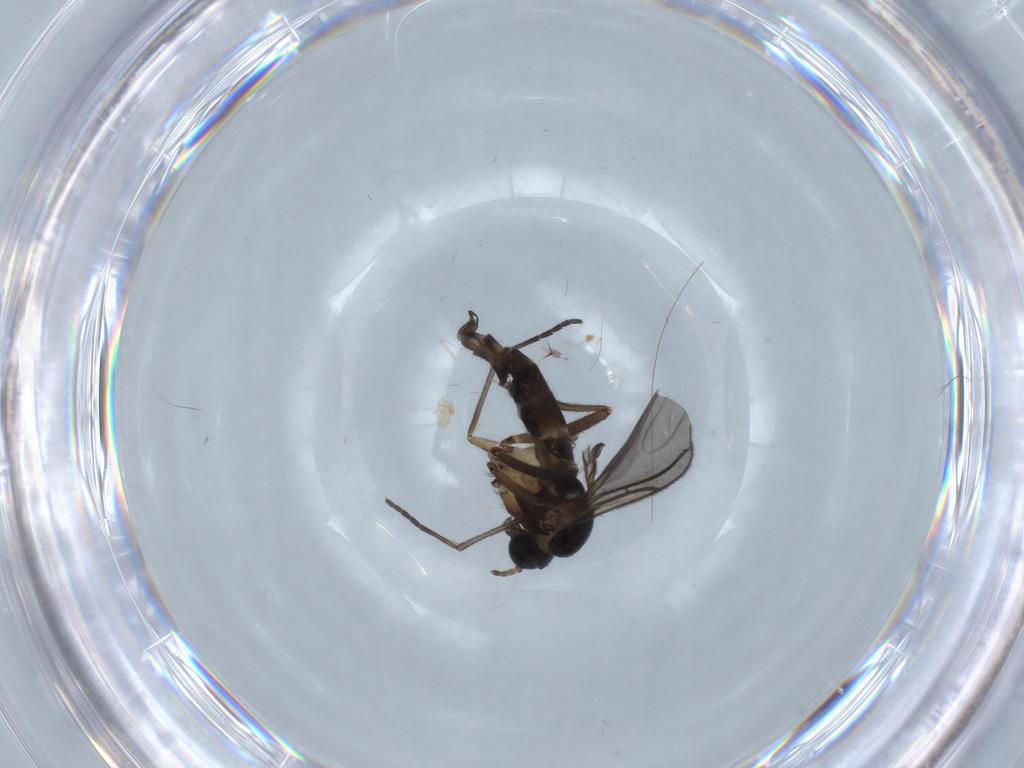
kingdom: Animalia
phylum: Arthropoda
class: Insecta
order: Diptera
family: Sciaridae
